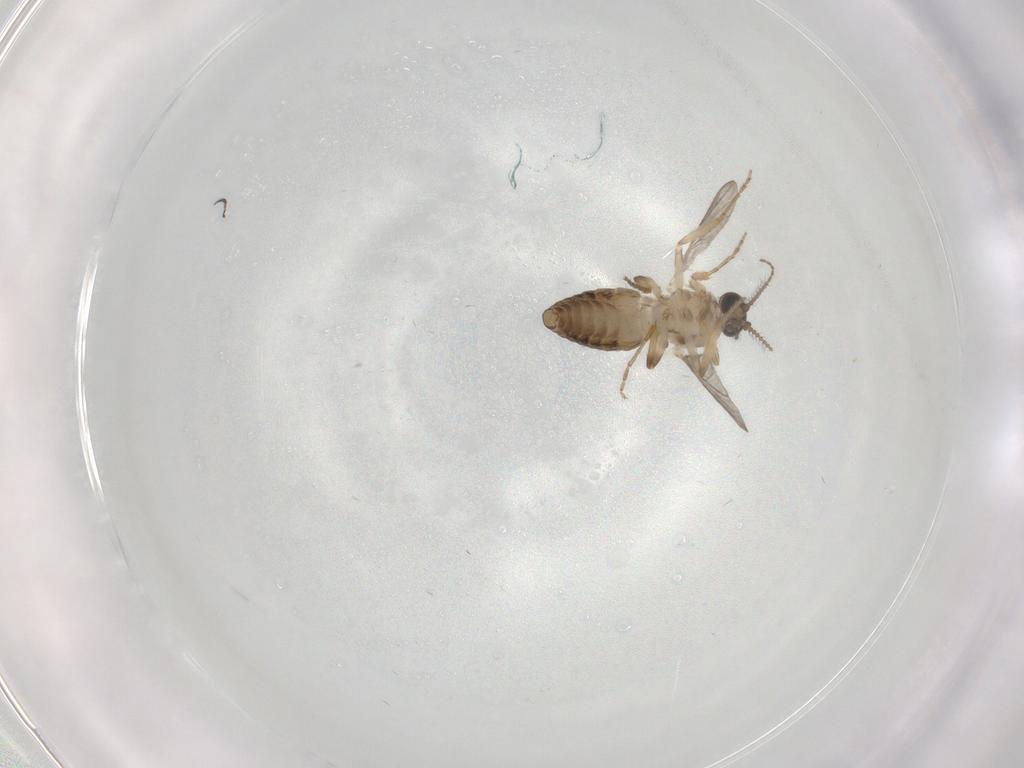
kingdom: Animalia
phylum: Arthropoda
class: Insecta
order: Diptera
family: Ceratopogonidae
